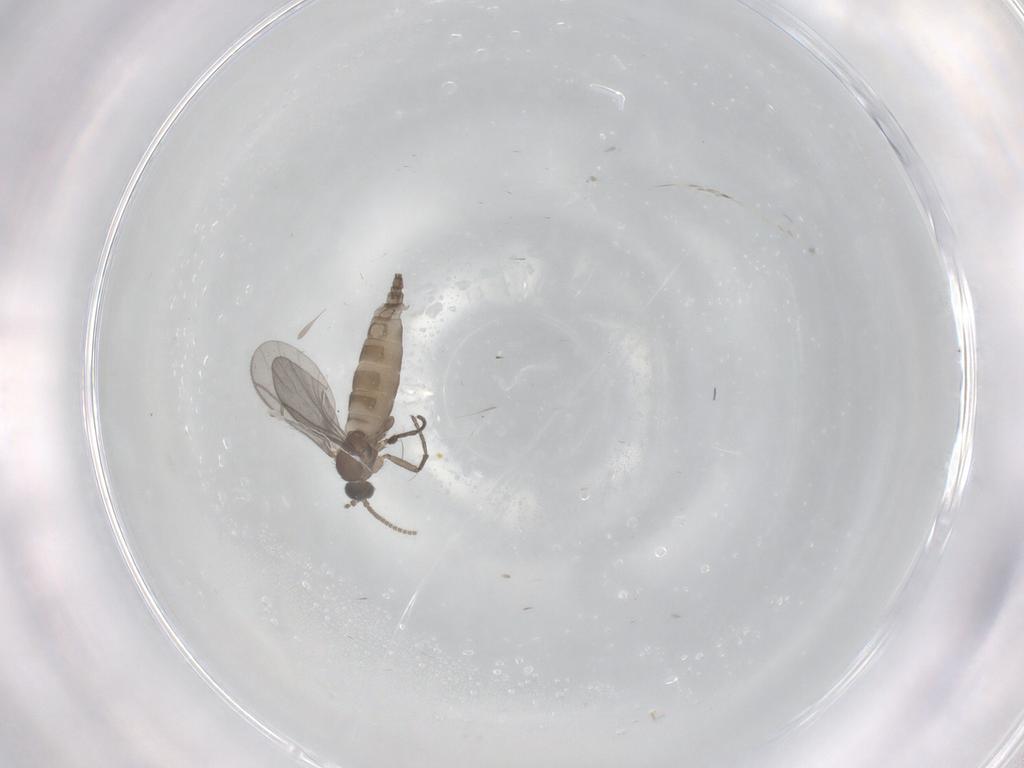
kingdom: Animalia
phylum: Arthropoda
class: Insecta
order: Diptera
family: Sciaridae
